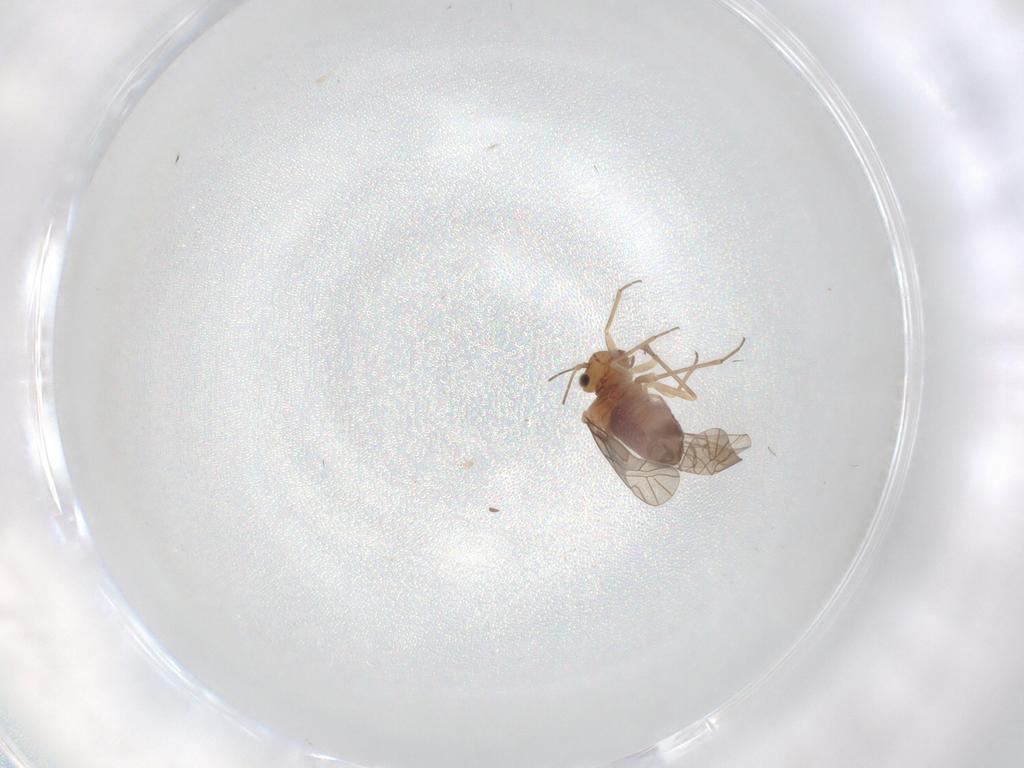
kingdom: Animalia
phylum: Arthropoda
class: Insecta
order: Psocodea
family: Lachesillidae
